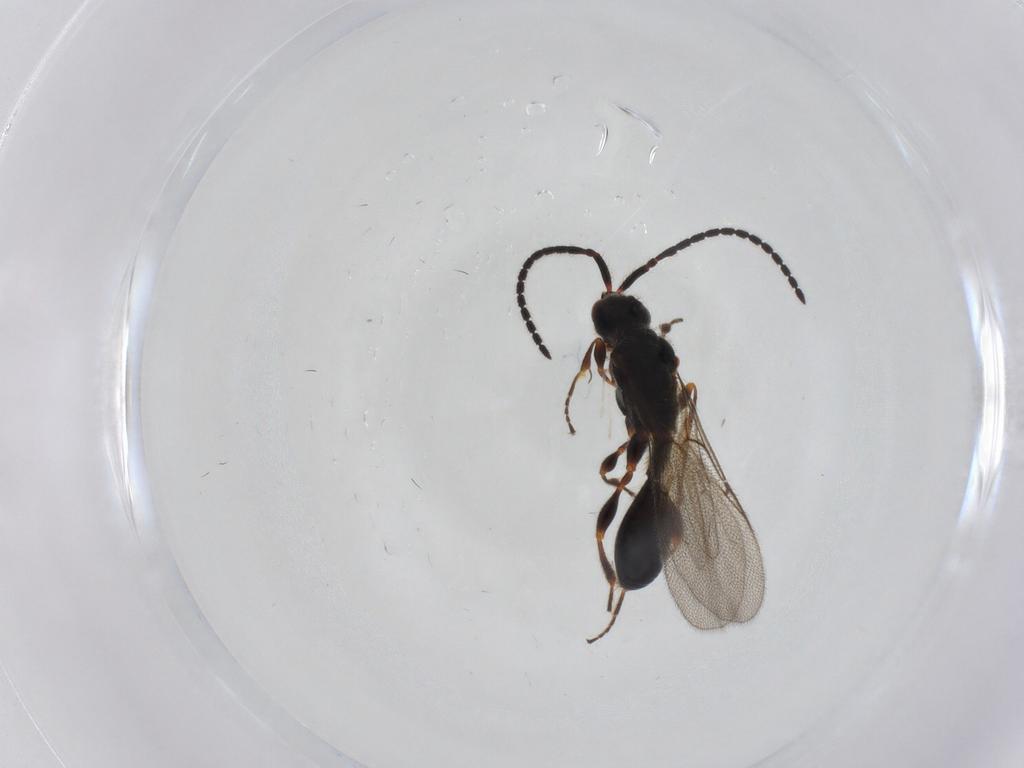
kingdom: Animalia
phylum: Arthropoda
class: Insecta
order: Hymenoptera
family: Diapriidae
